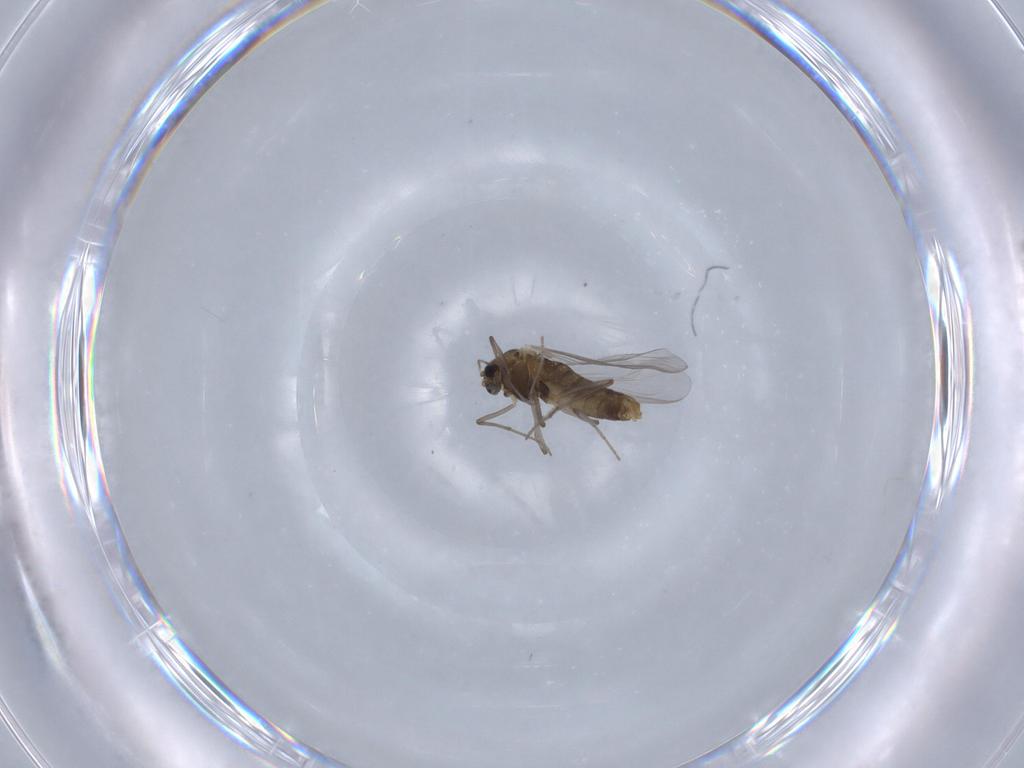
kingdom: Animalia
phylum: Arthropoda
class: Insecta
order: Diptera
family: Chironomidae
